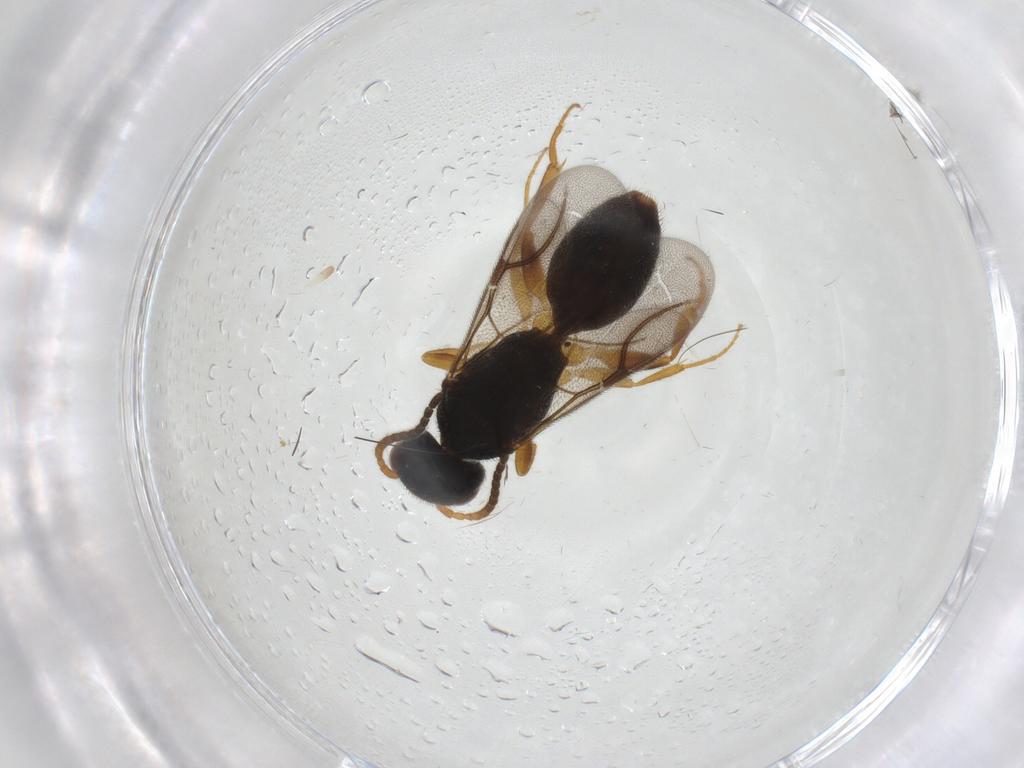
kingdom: Animalia
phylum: Arthropoda
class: Insecta
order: Hymenoptera
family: Bethylidae
